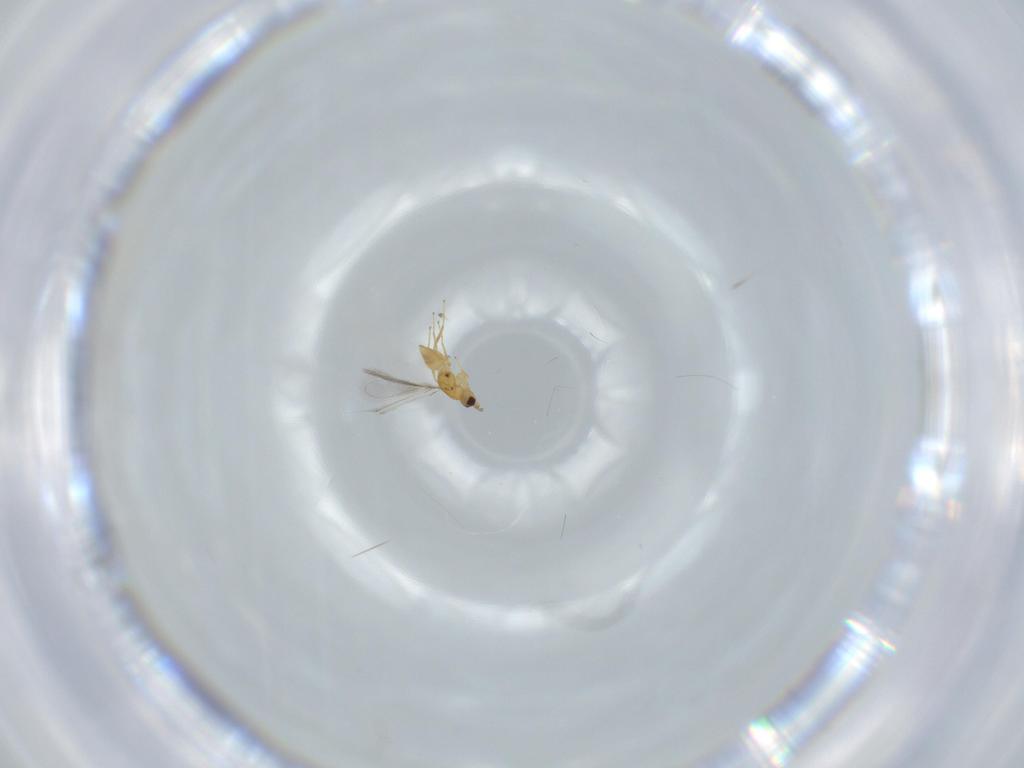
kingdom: Animalia
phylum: Arthropoda
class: Insecta
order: Hymenoptera
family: Mymaridae
